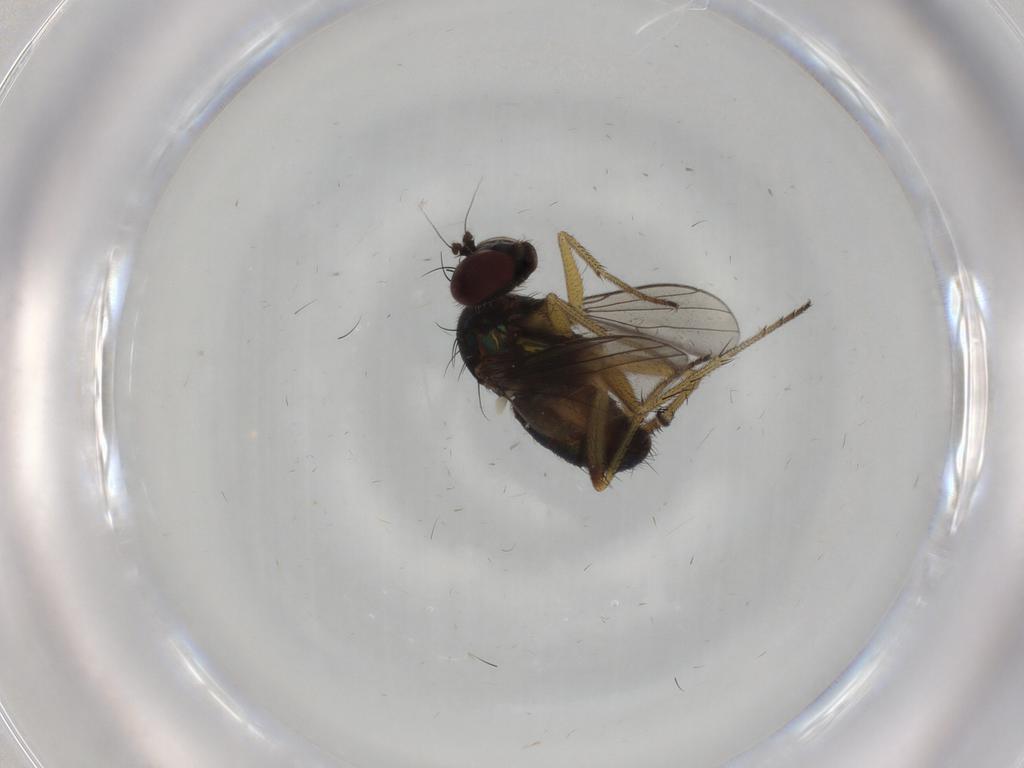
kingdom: Animalia
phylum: Arthropoda
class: Insecta
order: Diptera
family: Dolichopodidae
